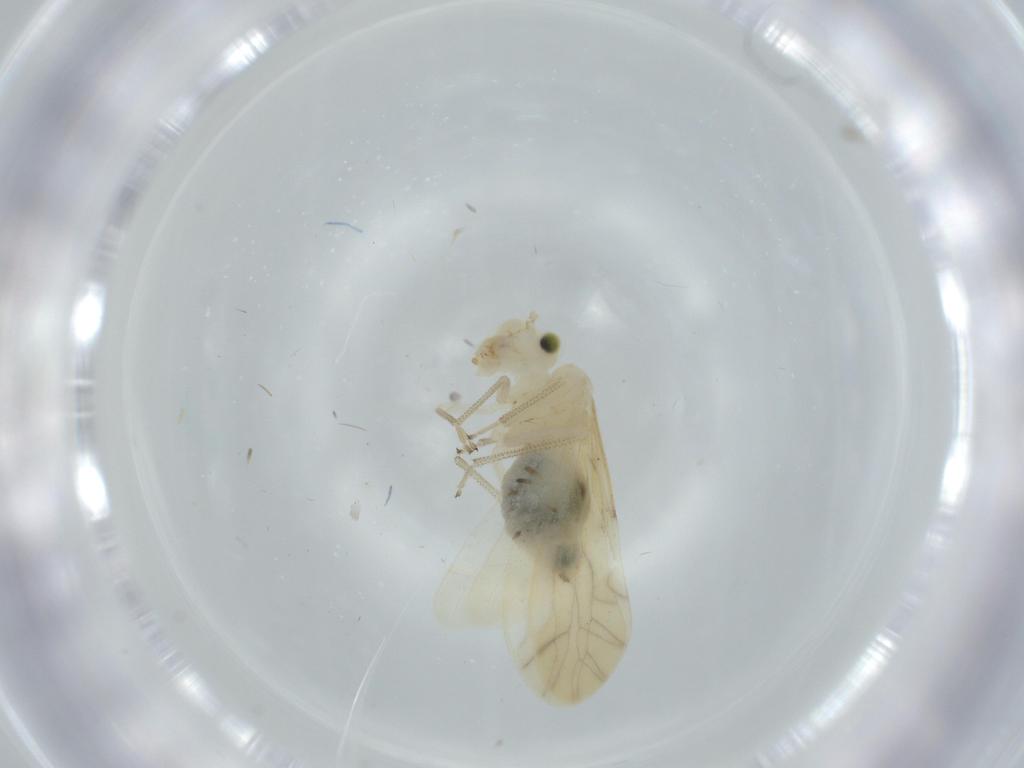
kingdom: Animalia
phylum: Arthropoda
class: Insecta
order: Psocodea
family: Caeciliusidae
